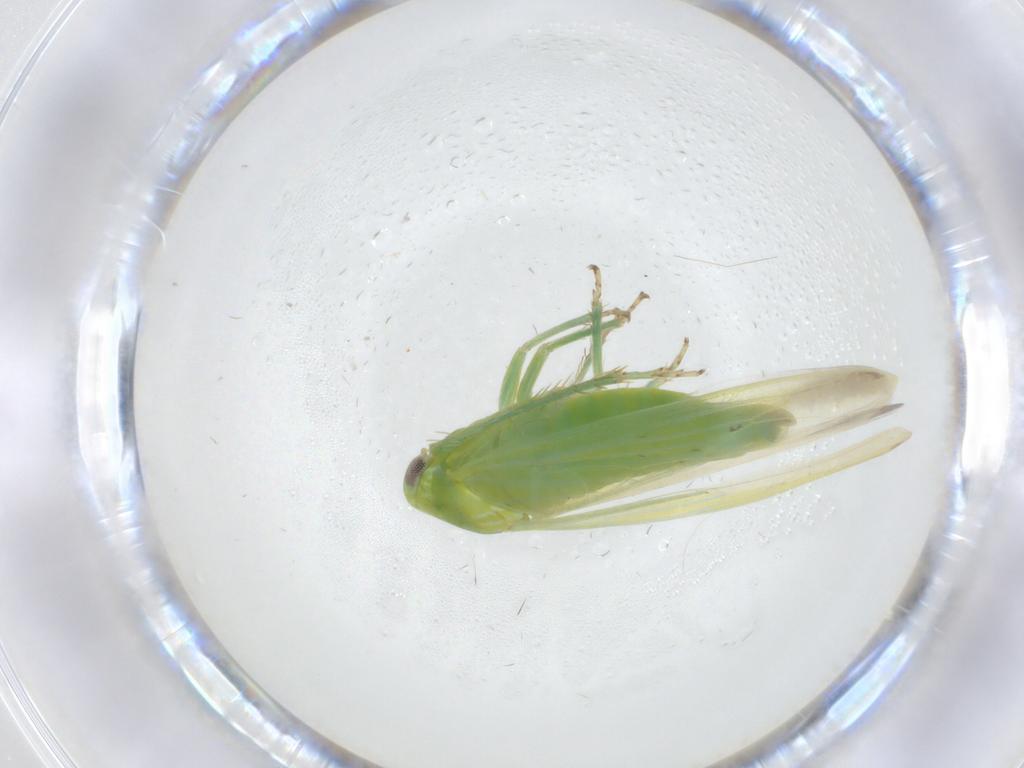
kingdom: Animalia
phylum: Arthropoda
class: Insecta
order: Hemiptera
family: Cicadellidae
